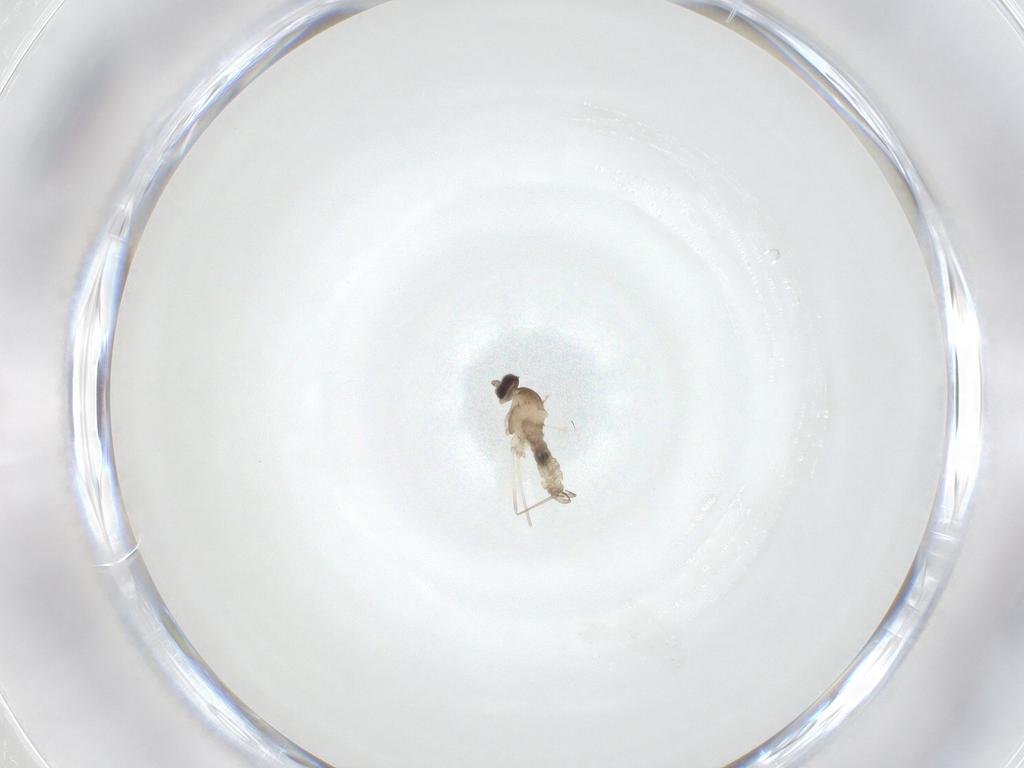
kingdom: Animalia
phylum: Arthropoda
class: Insecta
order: Diptera
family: Cecidomyiidae
